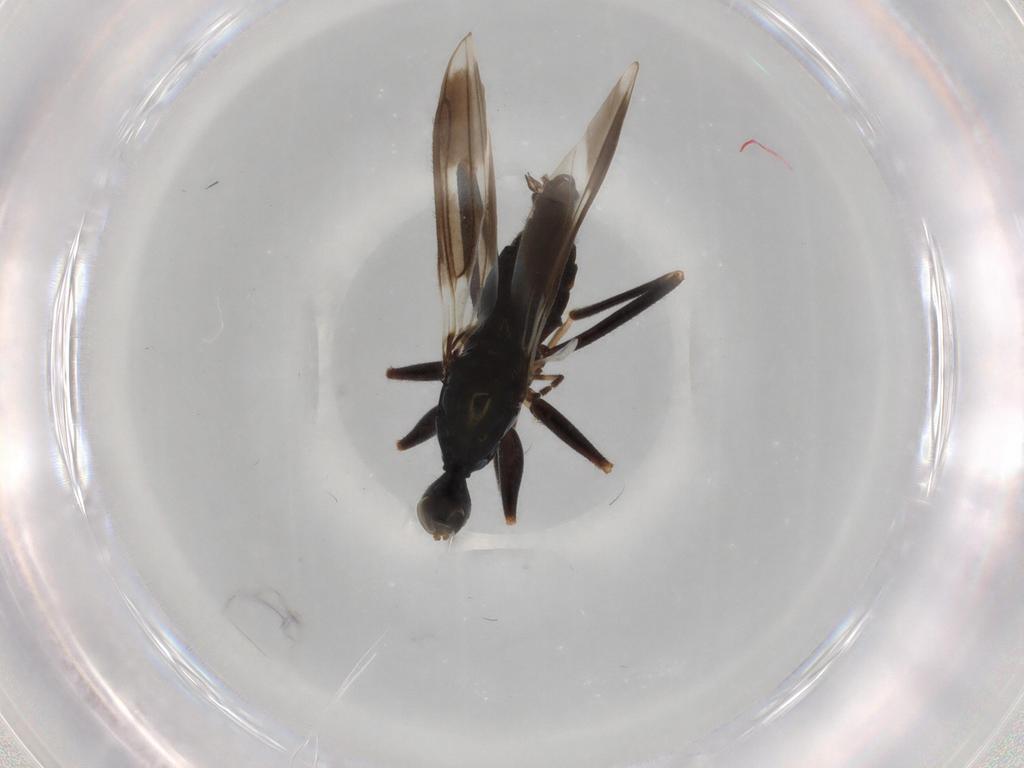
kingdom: Animalia
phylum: Arthropoda
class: Insecta
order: Diptera
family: Drosophilidae
